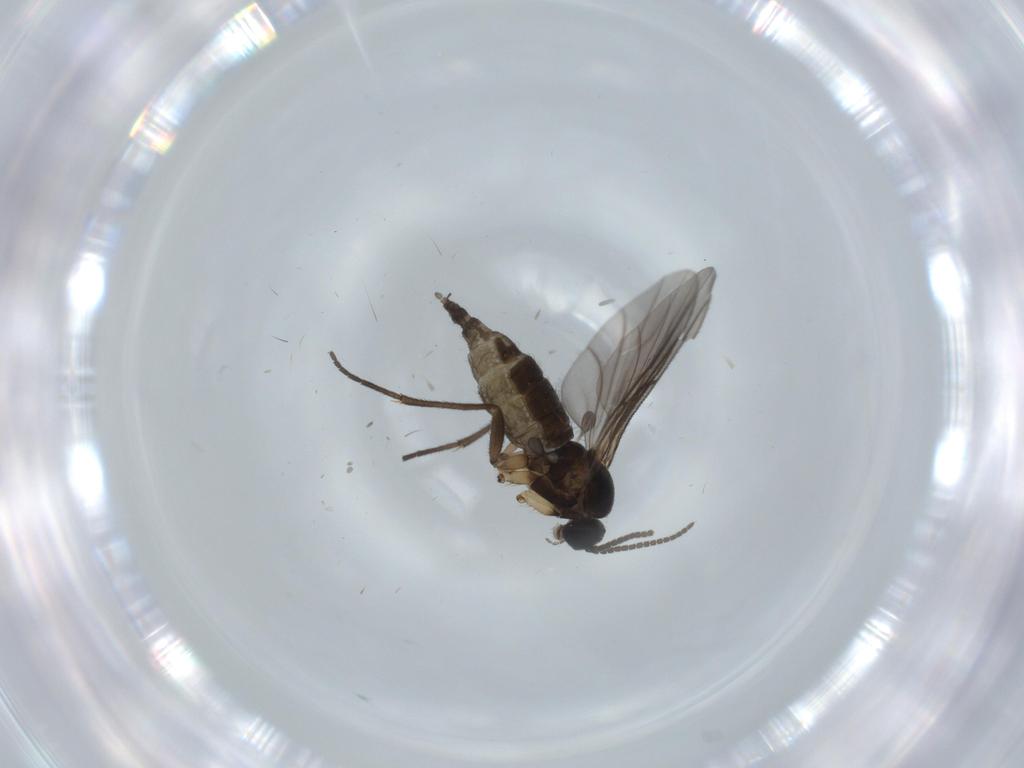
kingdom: Animalia
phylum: Arthropoda
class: Insecta
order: Diptera
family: Sciaridae
